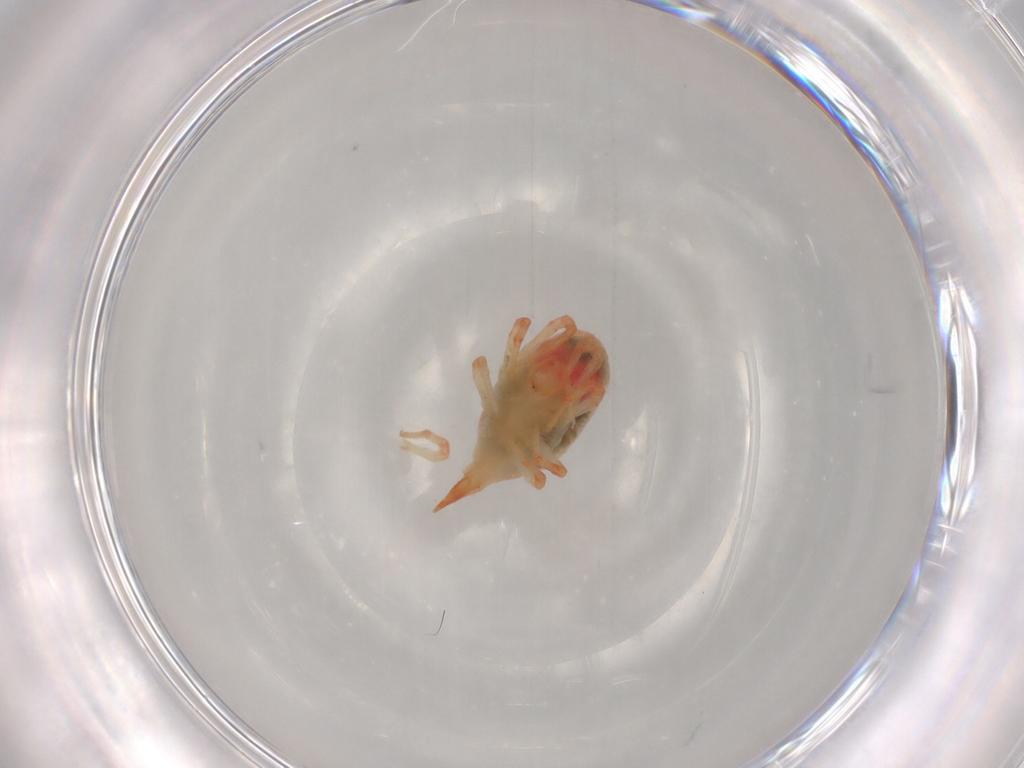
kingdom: Animalia
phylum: Arthropoda
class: Arachnida
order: Trombidiformes
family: Bdellidae
